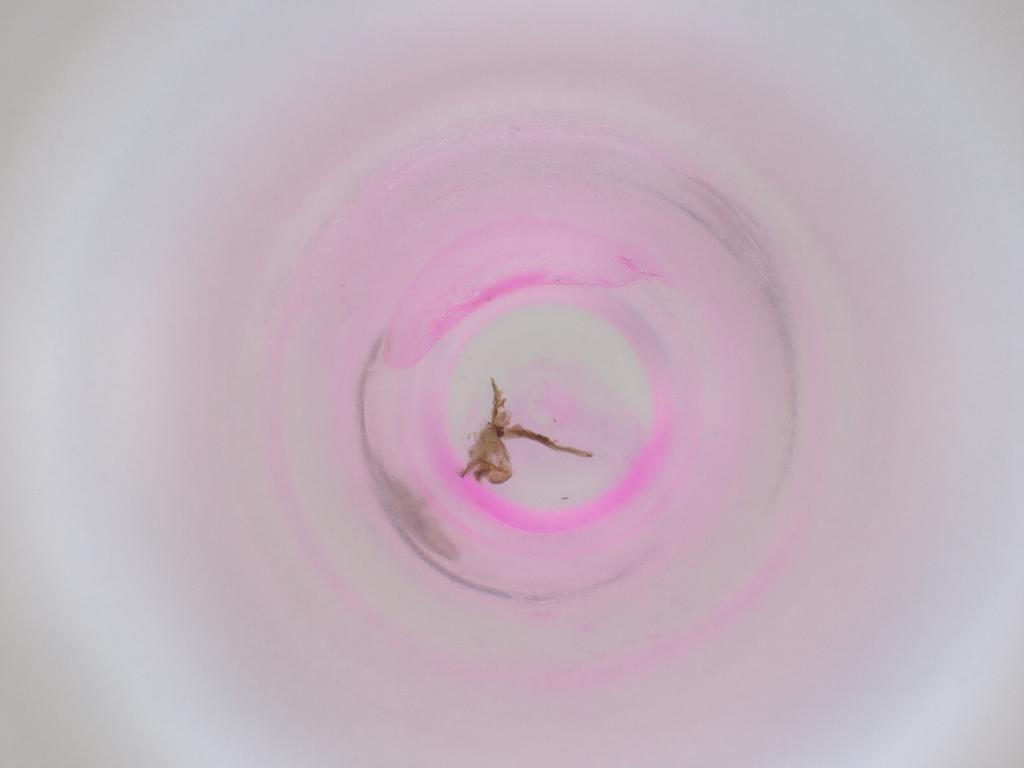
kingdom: Animalia
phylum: Arthropoda
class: Insecta
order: Diptera
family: Cecidomyiidae
